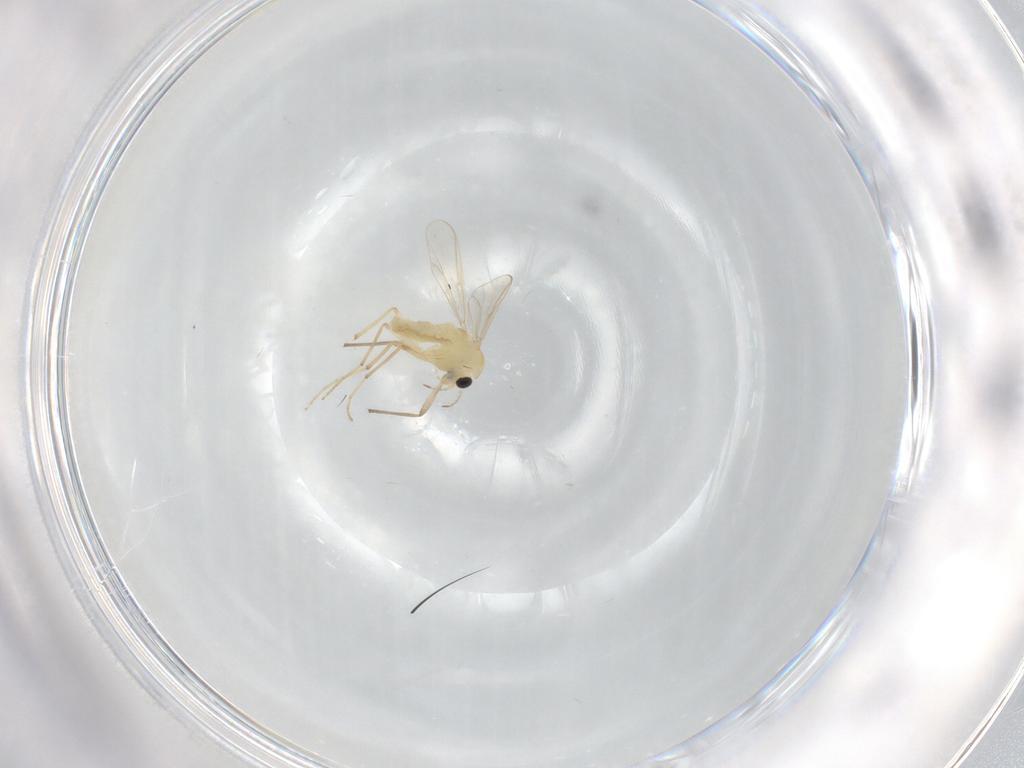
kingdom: Animalia
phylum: Arthropoda
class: Insecta
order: Diptera
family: Chironomidae
